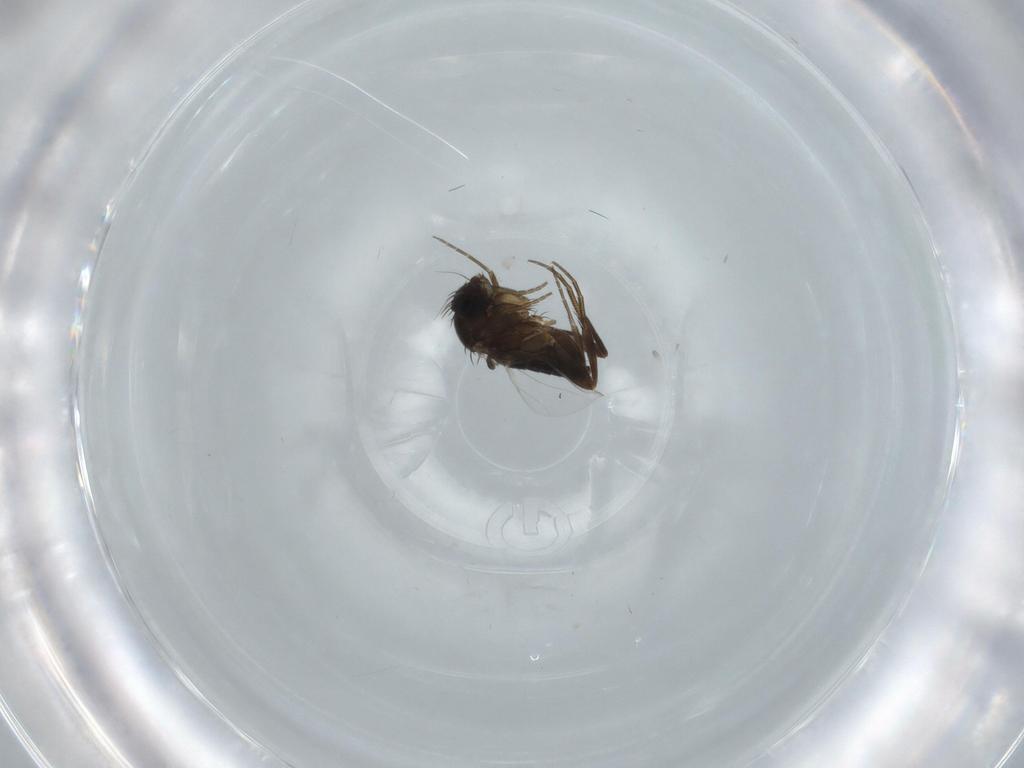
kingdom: Animalia
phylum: Arthropoda
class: Insecta
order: Diptera
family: Phoridae
